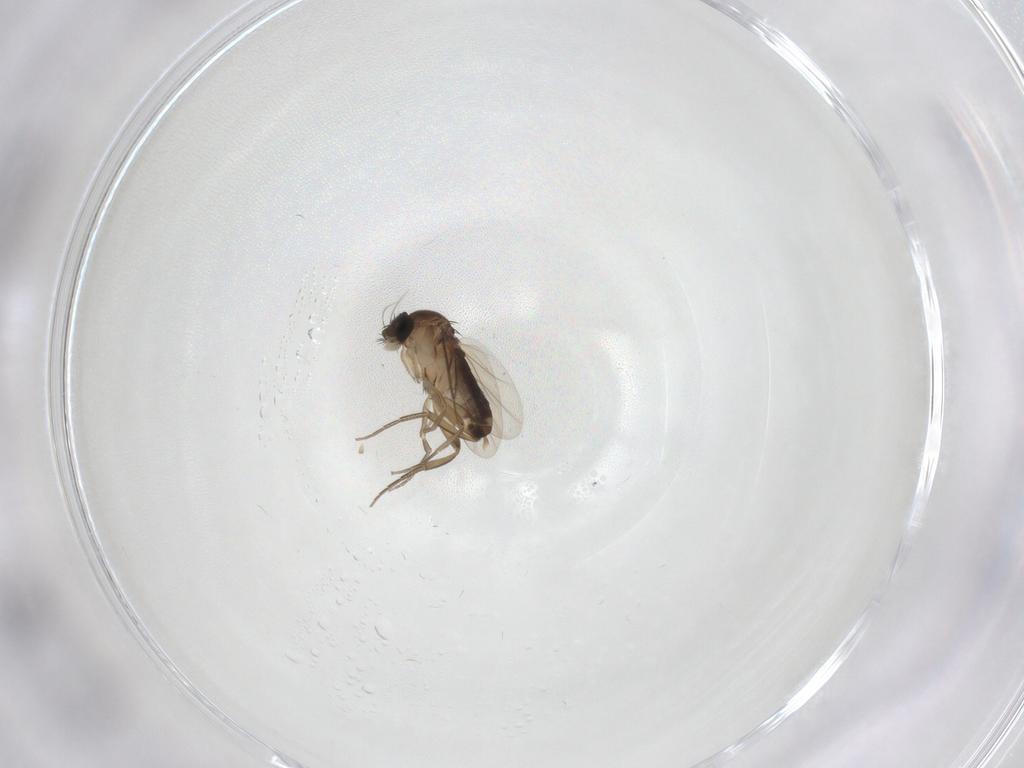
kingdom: Animalia
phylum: Arthropoda
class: Insecta
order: Diptera
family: Phoridae
